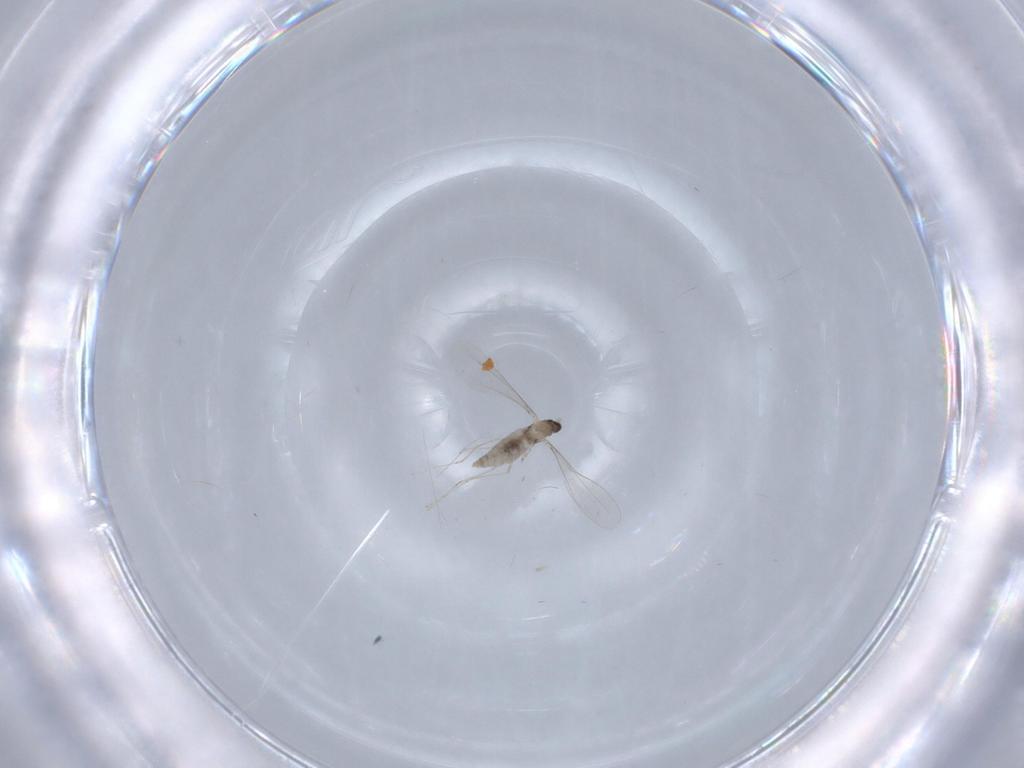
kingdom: Animalia
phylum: Arthropoda
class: Insecta
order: Diptera
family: Cecidomyiidae
